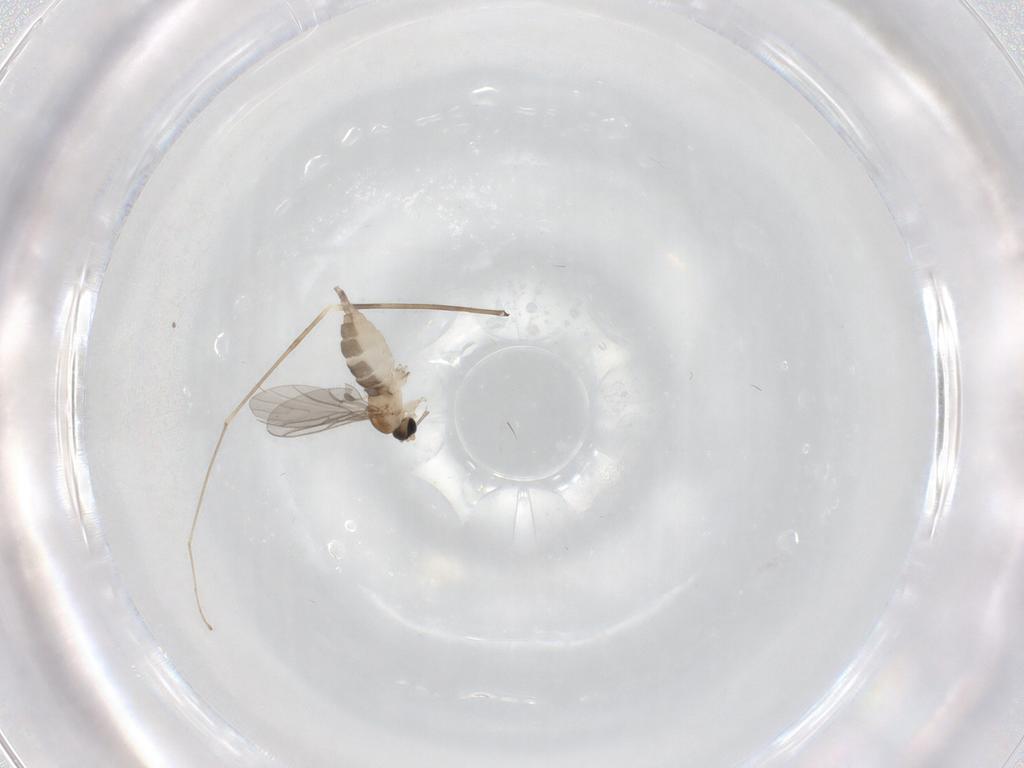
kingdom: Animalia
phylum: Arthropoda
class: Insecta
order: Diptera
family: Sciaridae
